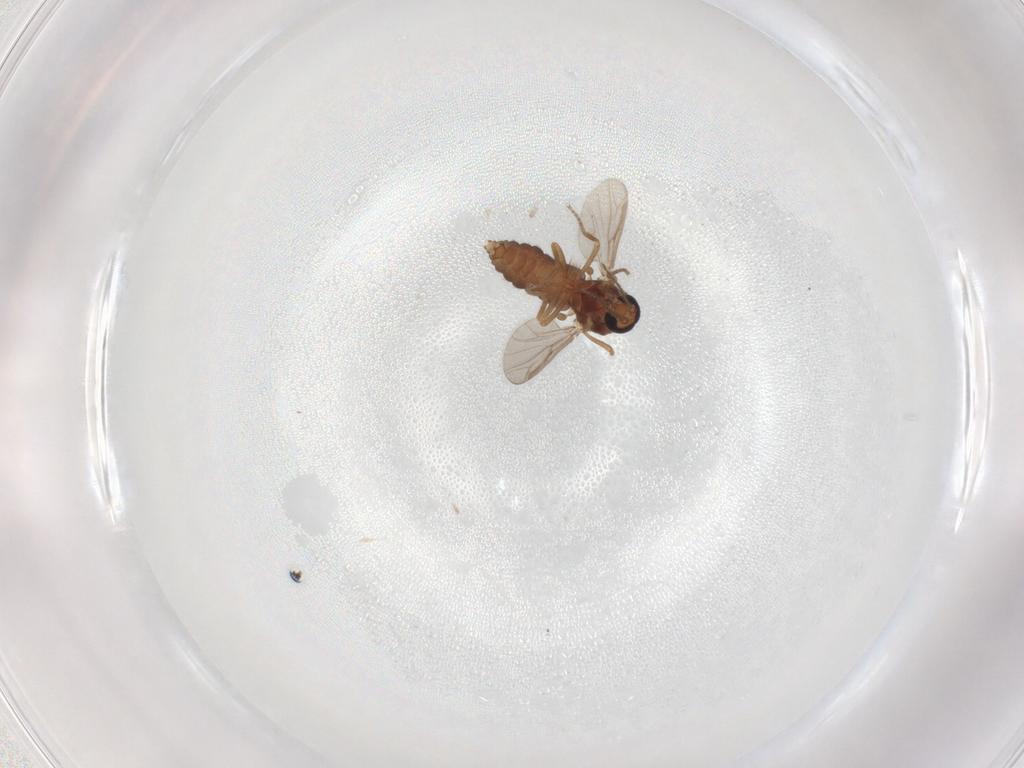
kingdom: Animalia
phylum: Arthropoda
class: Insecta
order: Diptera
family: Ceratopogonidae
